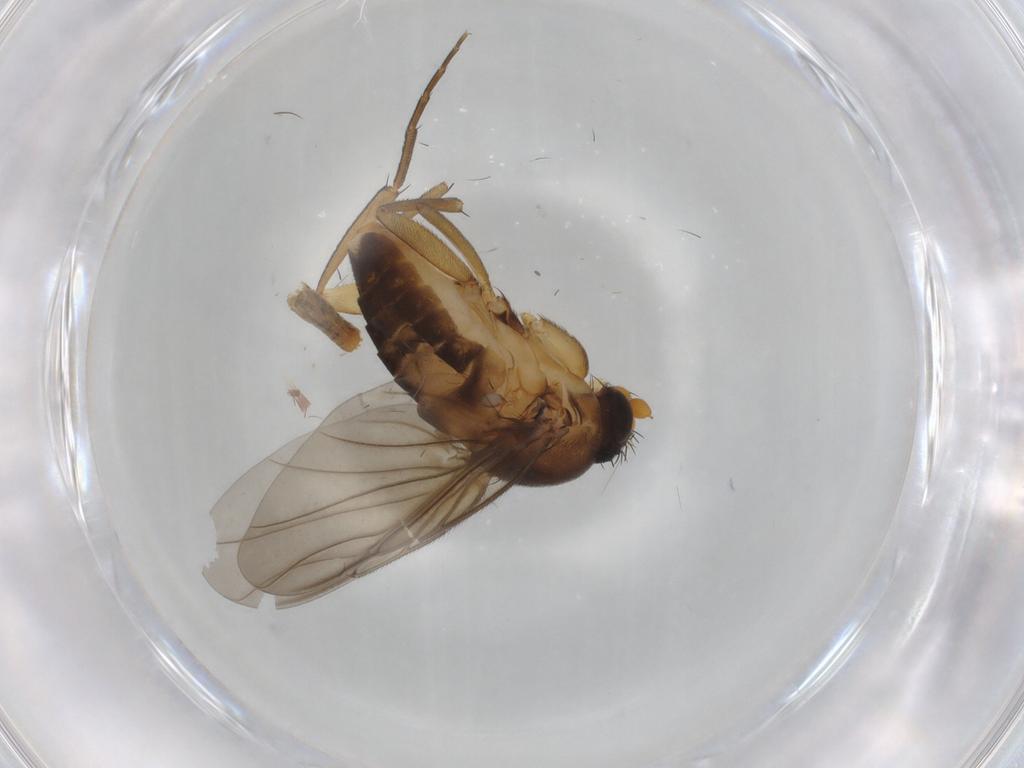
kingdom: Animalia
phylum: Arthropoda
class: Insecta
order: Diptera
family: Chironomidae
